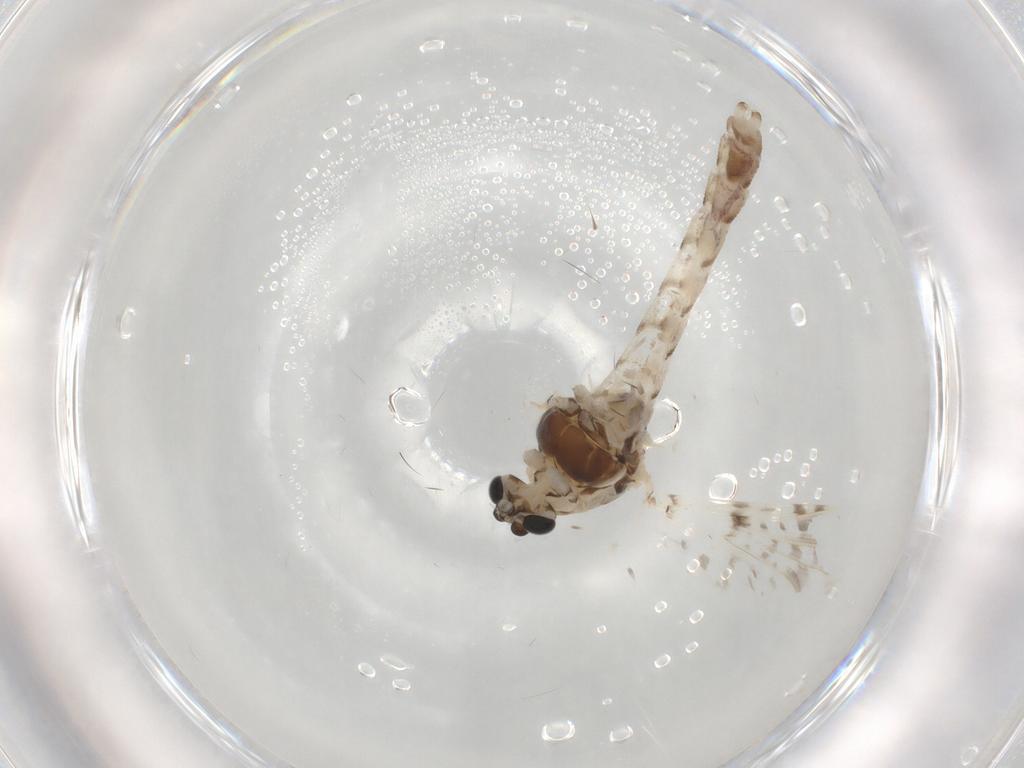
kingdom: Animalia
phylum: Arthropoda
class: Insecta
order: Diptera
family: Chironomidae
